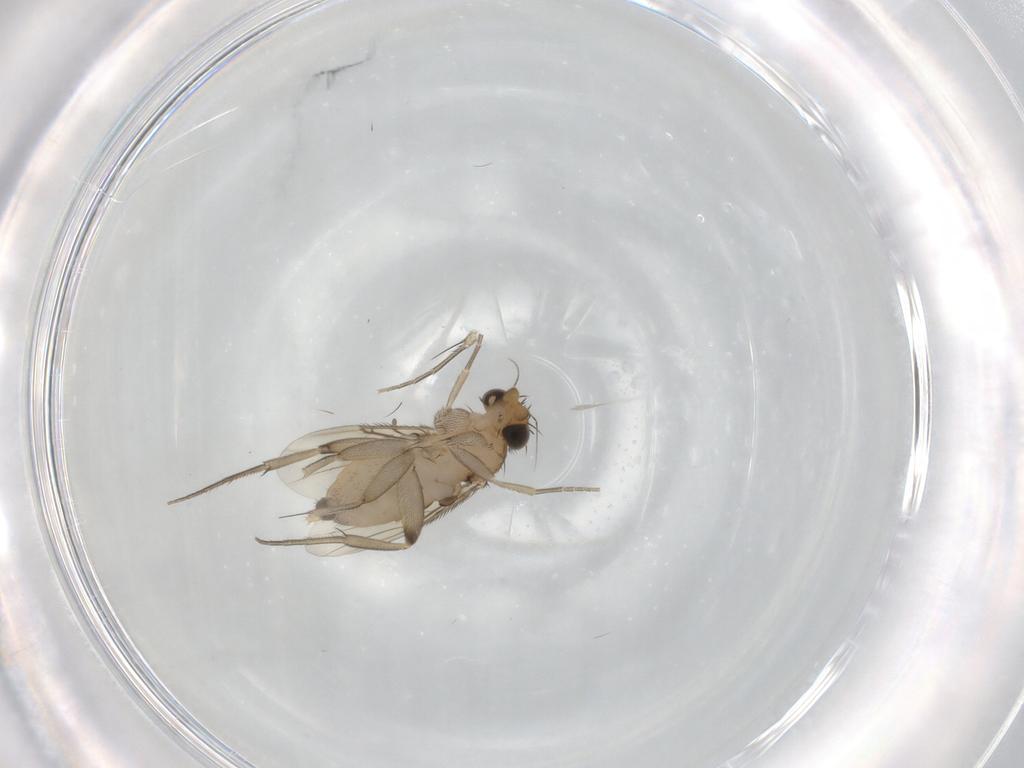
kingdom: Animalia
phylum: Arthropoda
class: Insecta
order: Diptera
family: Phoridae
